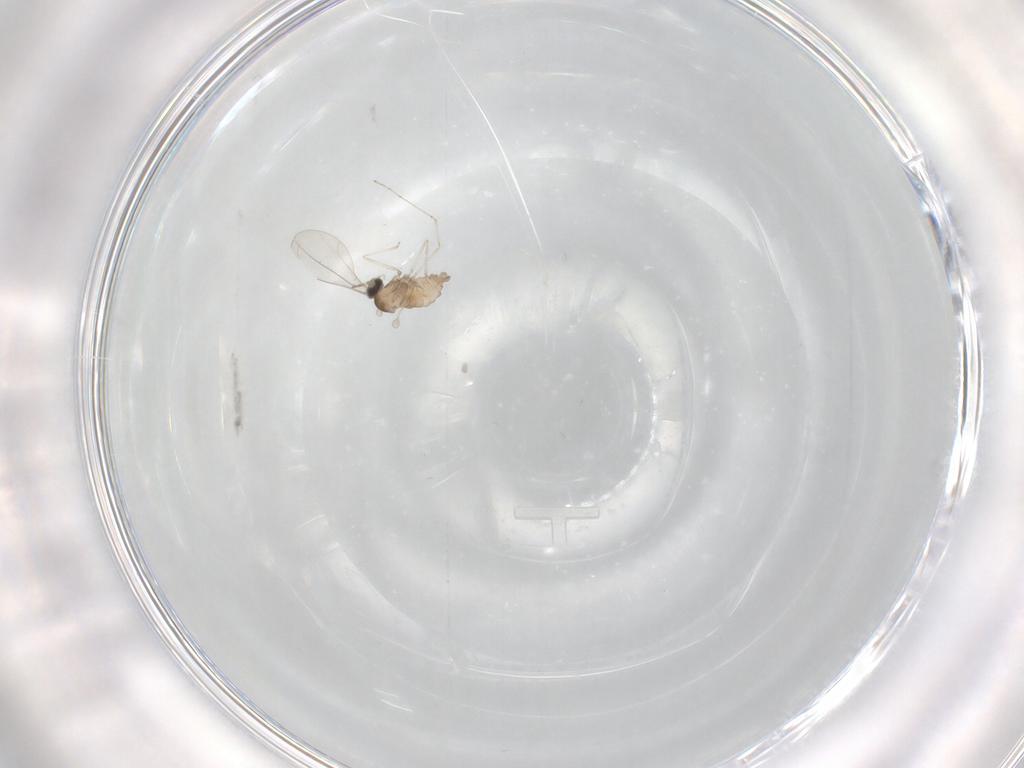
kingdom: Animalia
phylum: Arthropoda
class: Insecta
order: Diptera
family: Cecidomyiidae
